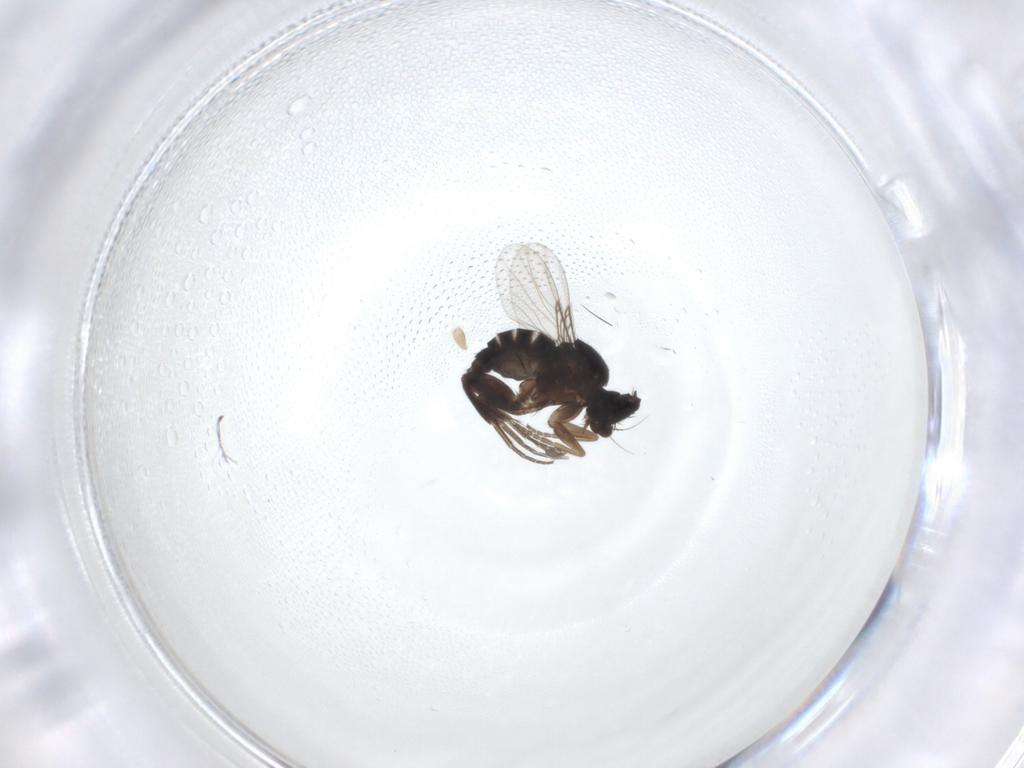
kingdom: Animalia
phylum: Arthropoda
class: Insecta
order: Diptera
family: Phoridae
